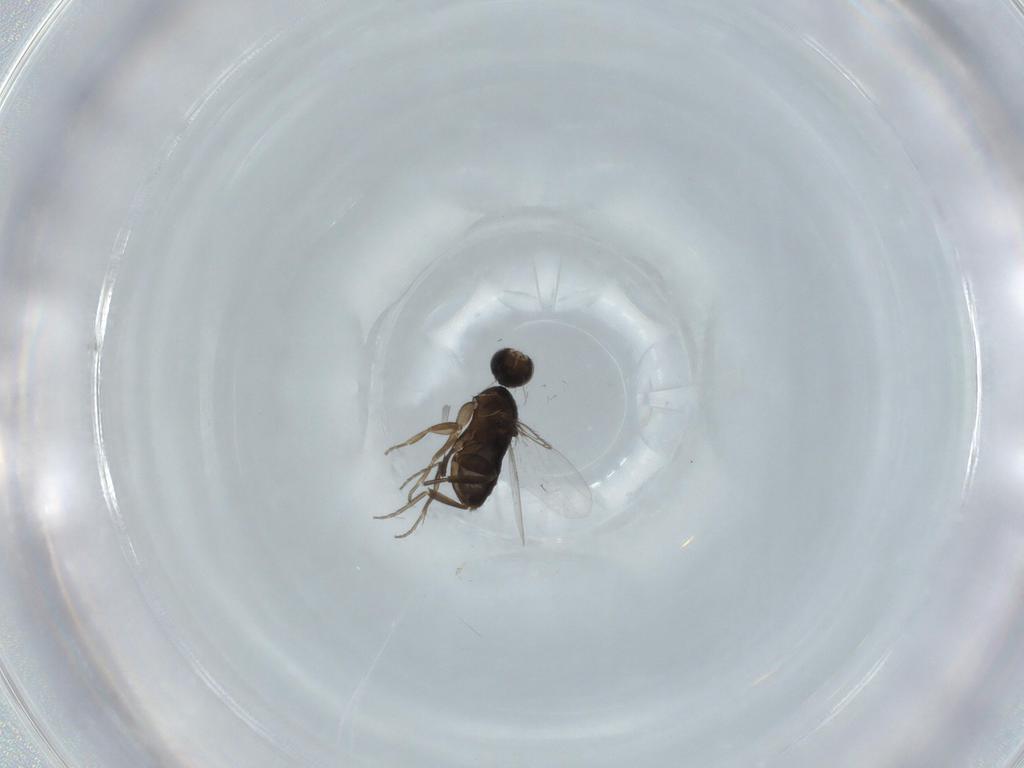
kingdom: Animalia
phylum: Arthropoda
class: Insecta
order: Diptera
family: Phoridae
